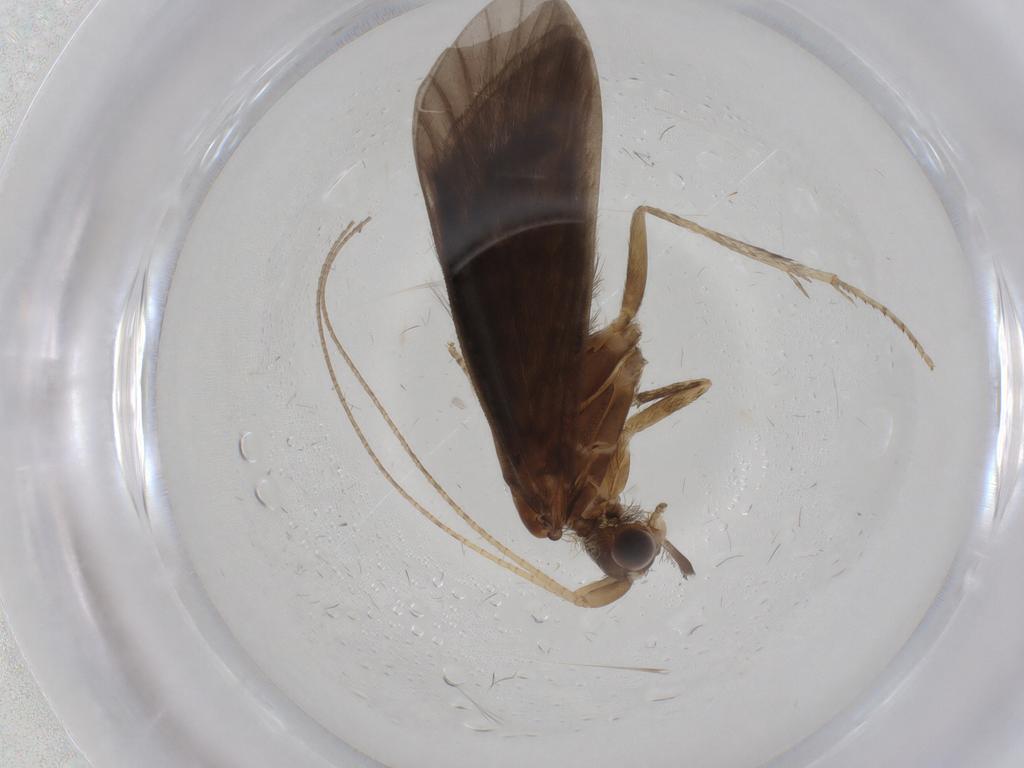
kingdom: Animalia
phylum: Arthropoda
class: Insecta
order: Trichoptera
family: Helicopsychidae
